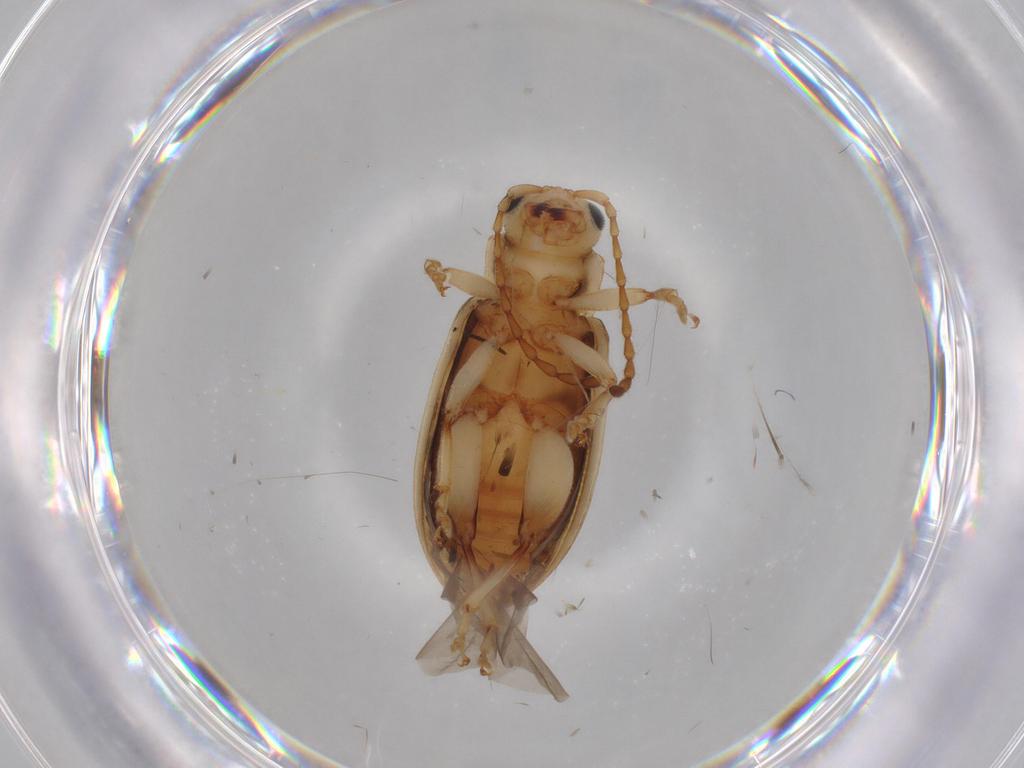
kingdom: Animalia
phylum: Arthropoda
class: Insecta
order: Coleoptera
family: Chrysomelidae
